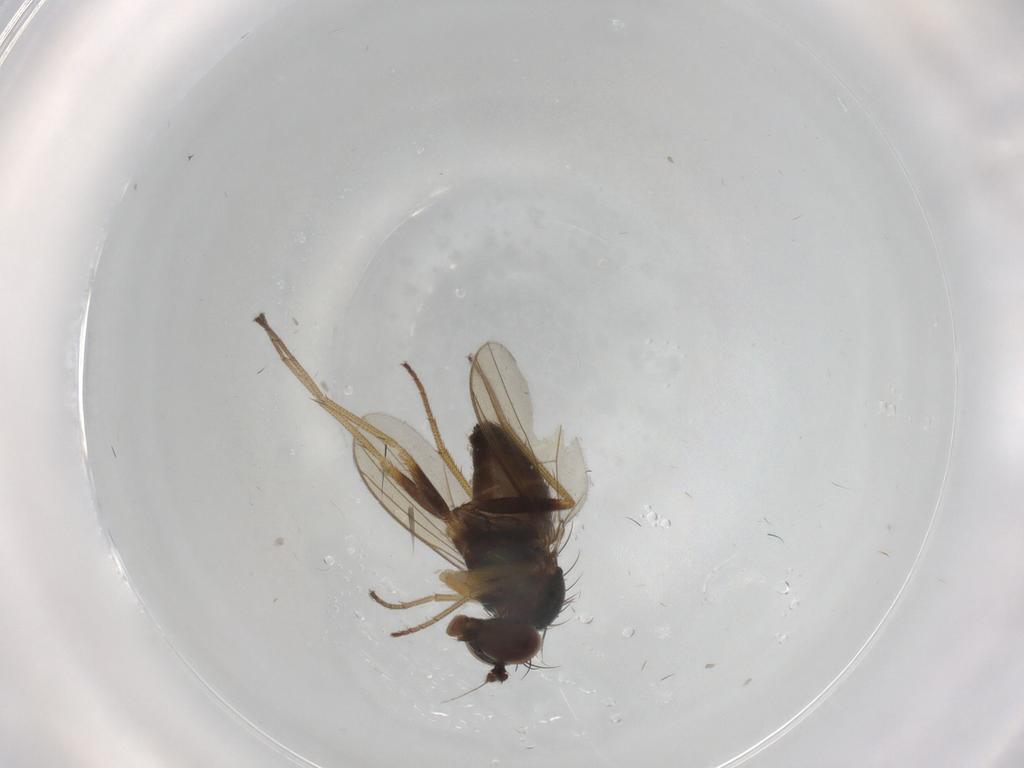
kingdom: Animalia
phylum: Arthropoda
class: Insecta
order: Diptera
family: Dolichopodidae
